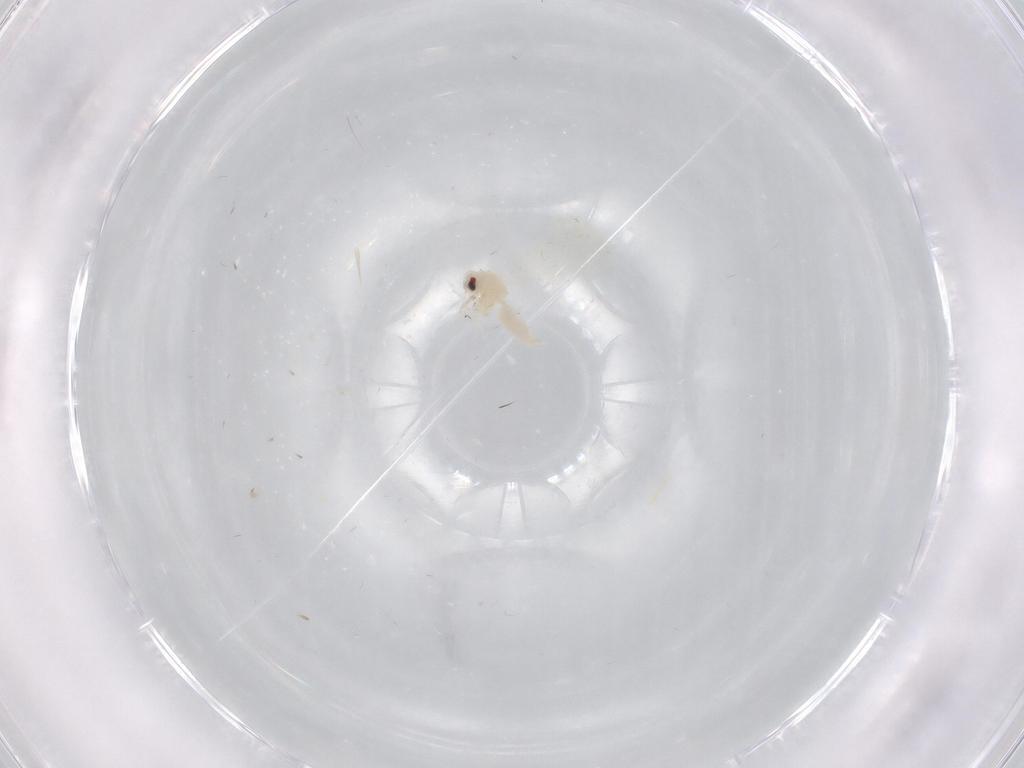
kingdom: Animalia
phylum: Arthropoda
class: Insecta
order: Diptera
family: Cecidomyiidae
